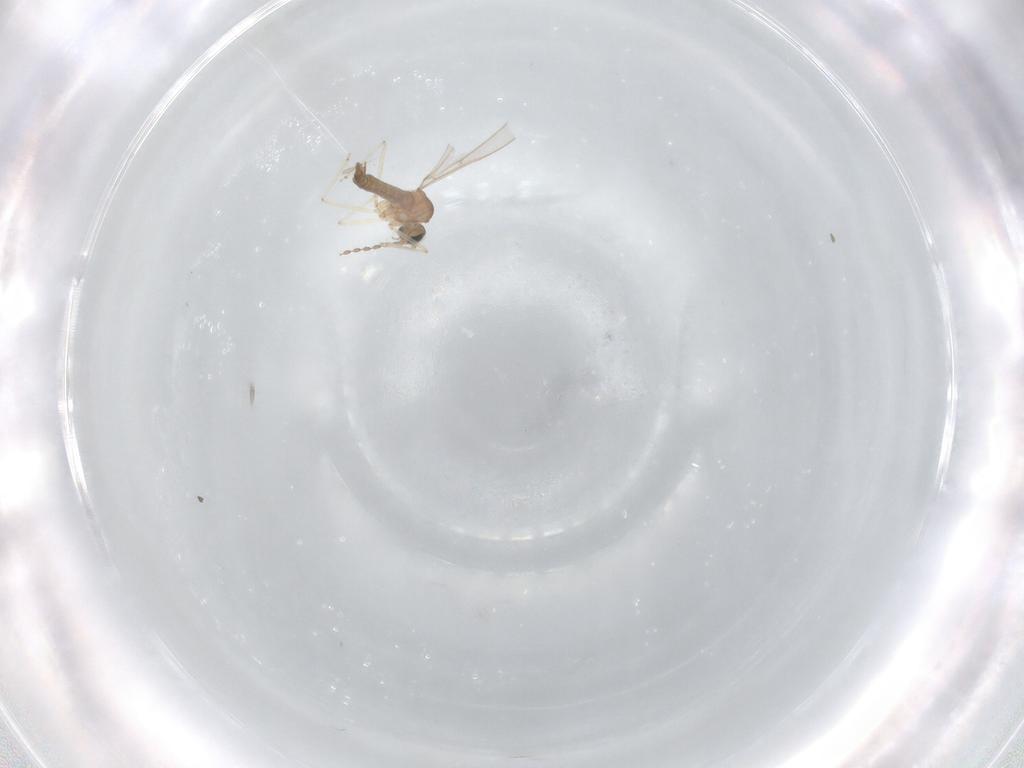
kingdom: Animalia
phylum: Arthropoda
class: Insecta
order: Diptera
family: Cecidomyiidae
